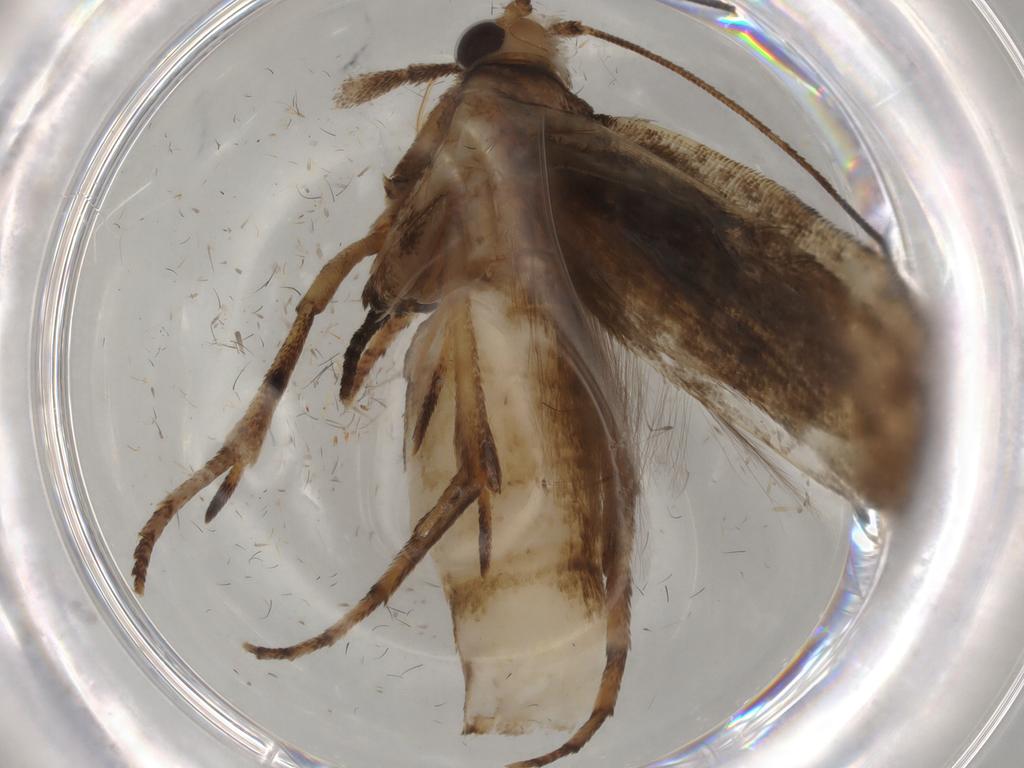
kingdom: Animalia
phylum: Arthropoda
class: Insecta
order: Lepidoptera
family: Yponomeutidae
